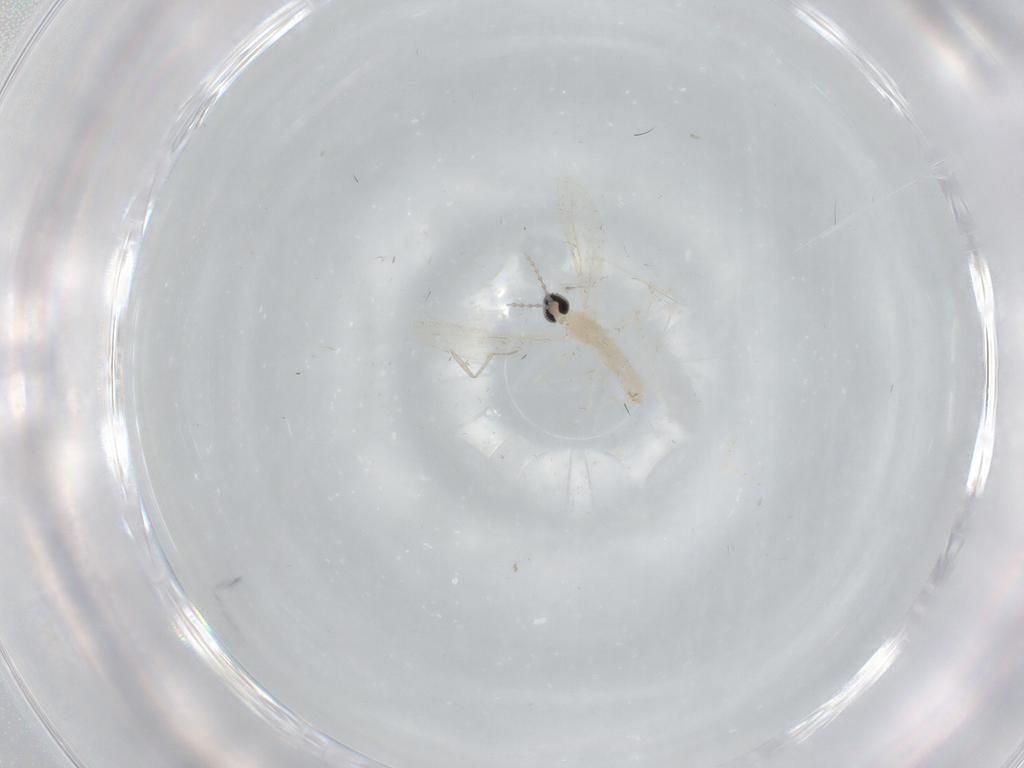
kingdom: Animalia
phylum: Arthropoda
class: Insecta
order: Diptera
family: Cecidomyiidae
